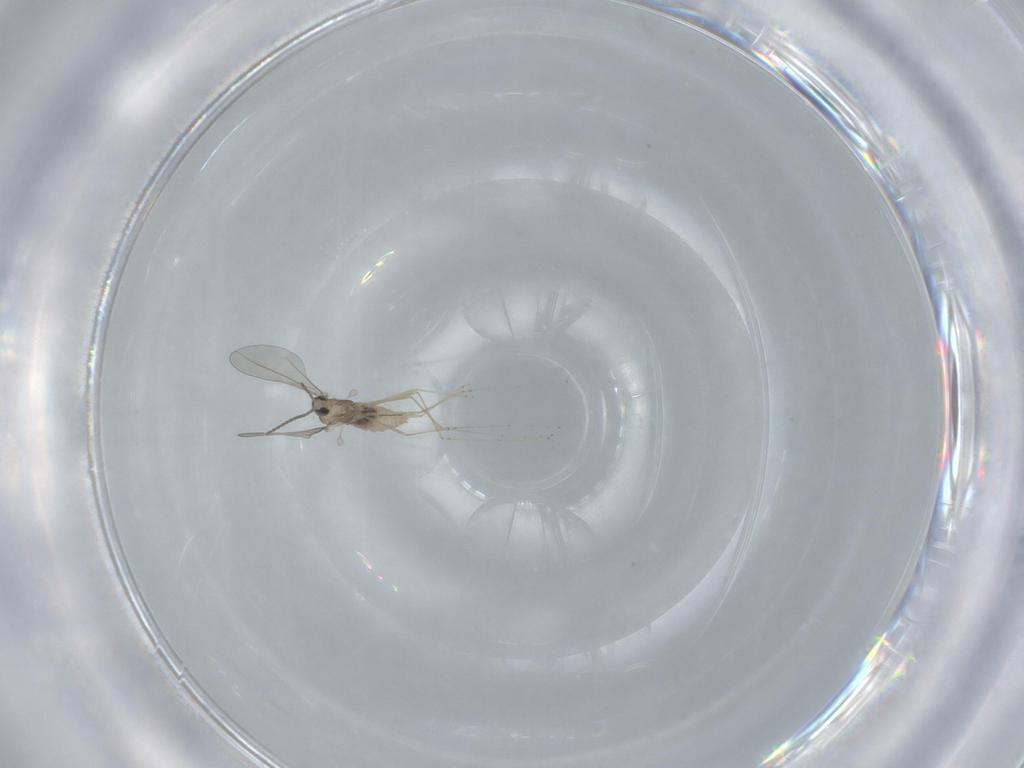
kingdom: Animalia
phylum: Arthropoda
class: Insecta
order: Diptera
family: Cecidomyiidae
